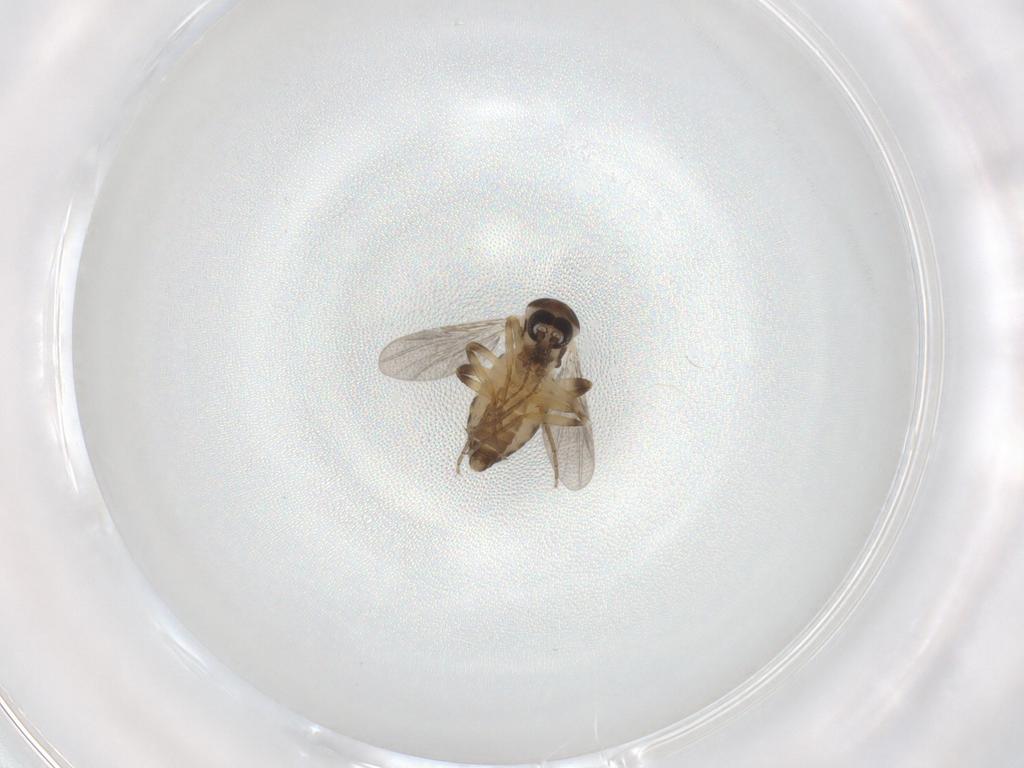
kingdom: Animalia
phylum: Arthropoda
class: Insecta
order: Diptera
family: Ceratopogonidae
